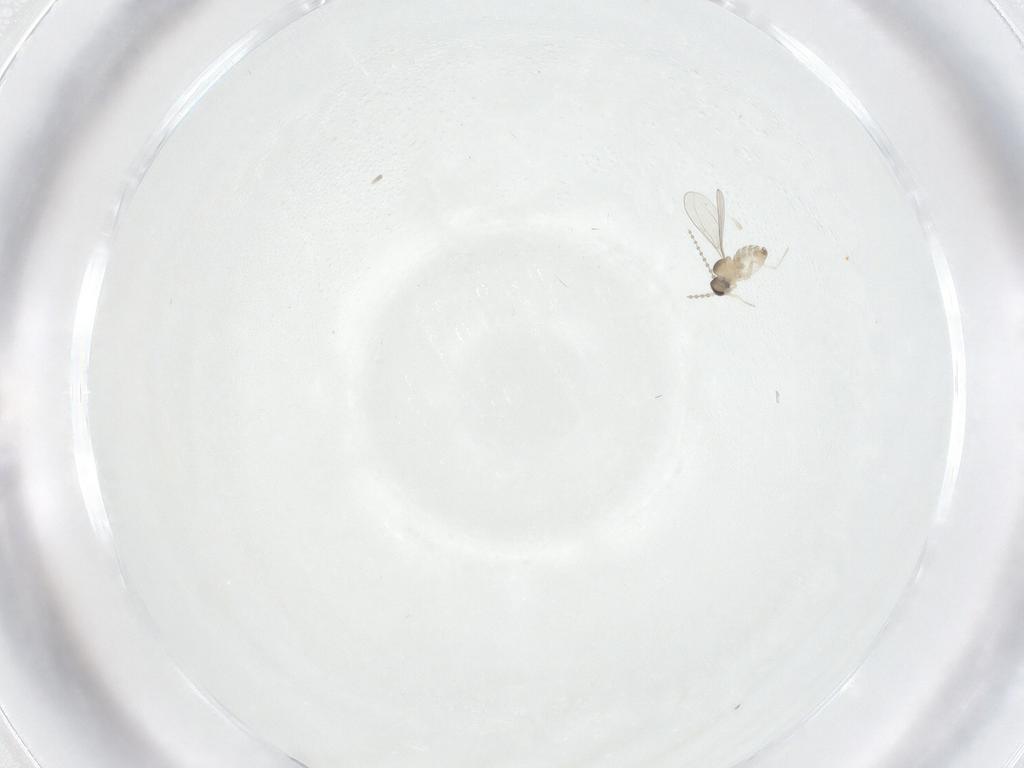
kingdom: Animalia
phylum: Arthropoda
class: Insecta
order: Diptera
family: Cecidomyiidae
